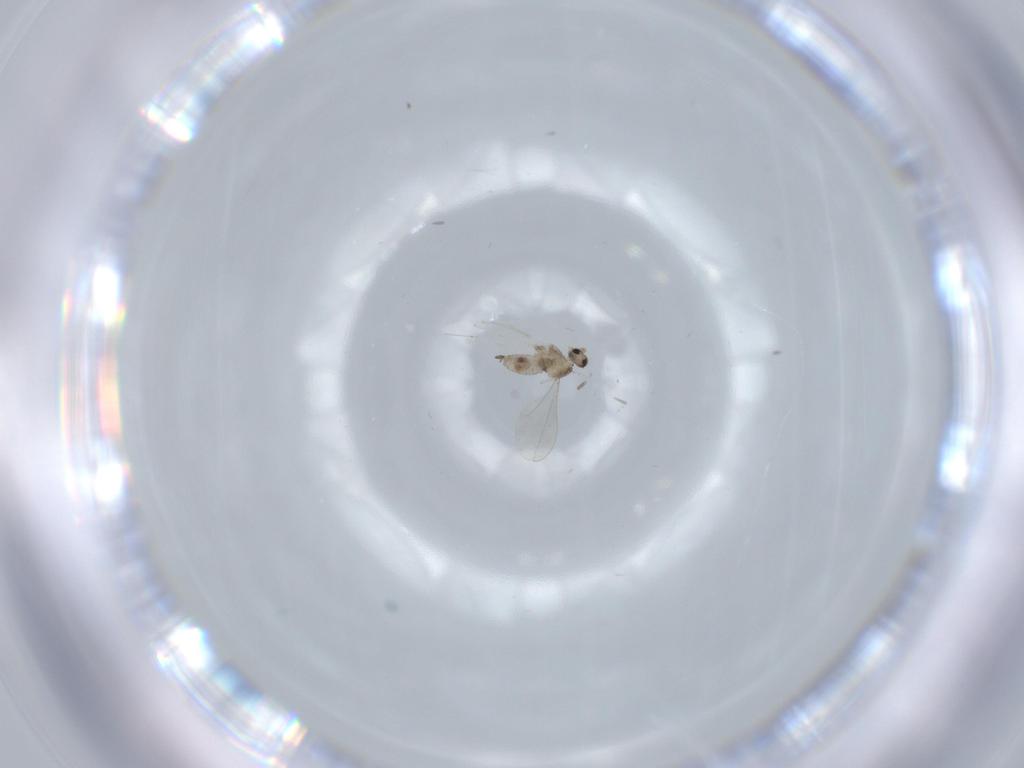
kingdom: Animalia
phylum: Arthropoda
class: Insecta
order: Diptera
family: Cecidomyiidae
